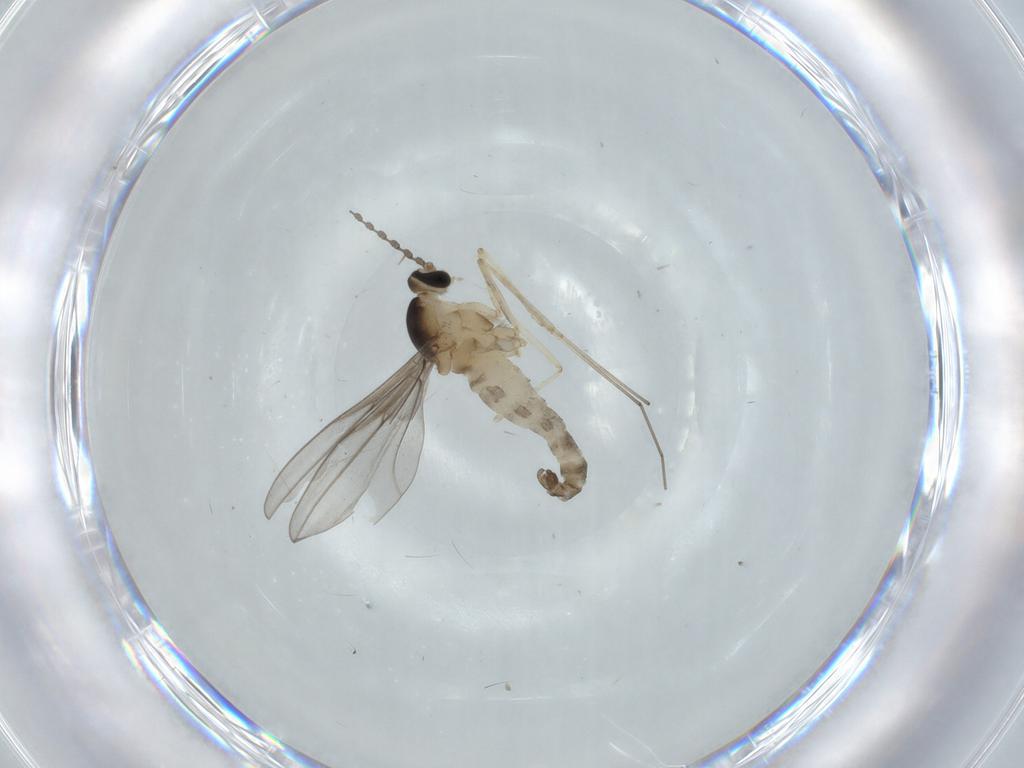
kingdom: Animalia
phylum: Arthropoda
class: Insecta
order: Diptera
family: Cecidomyiidae
